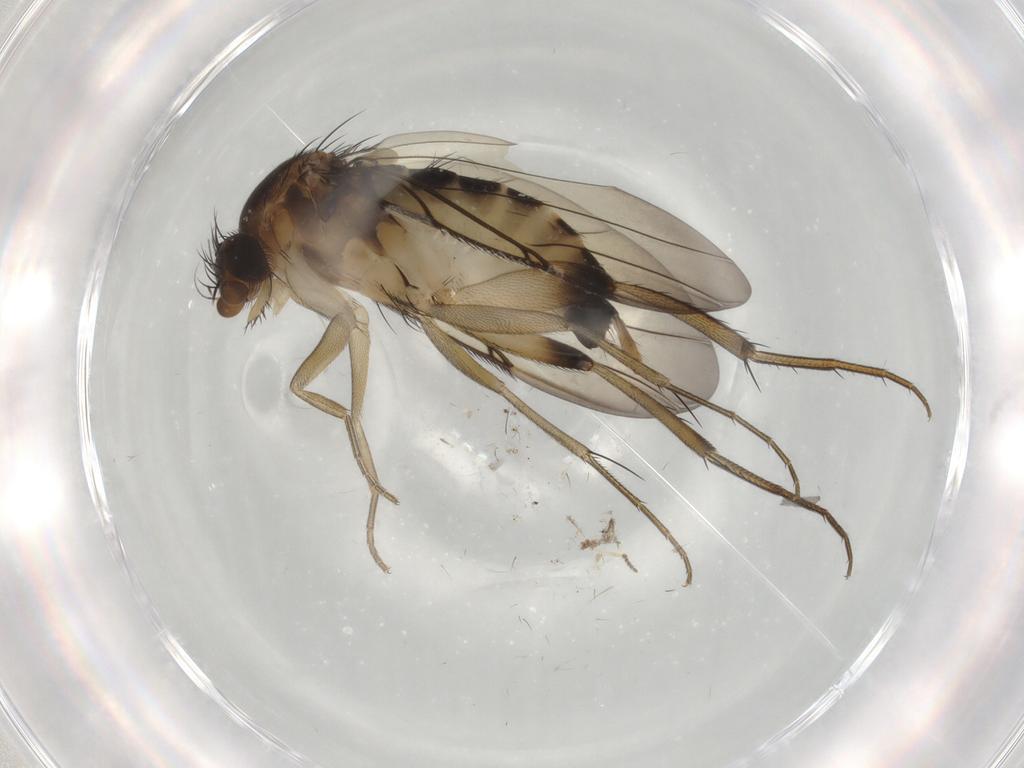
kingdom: Animalia
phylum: Arthropoda
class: Insecta
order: Diptera
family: Phoridae
